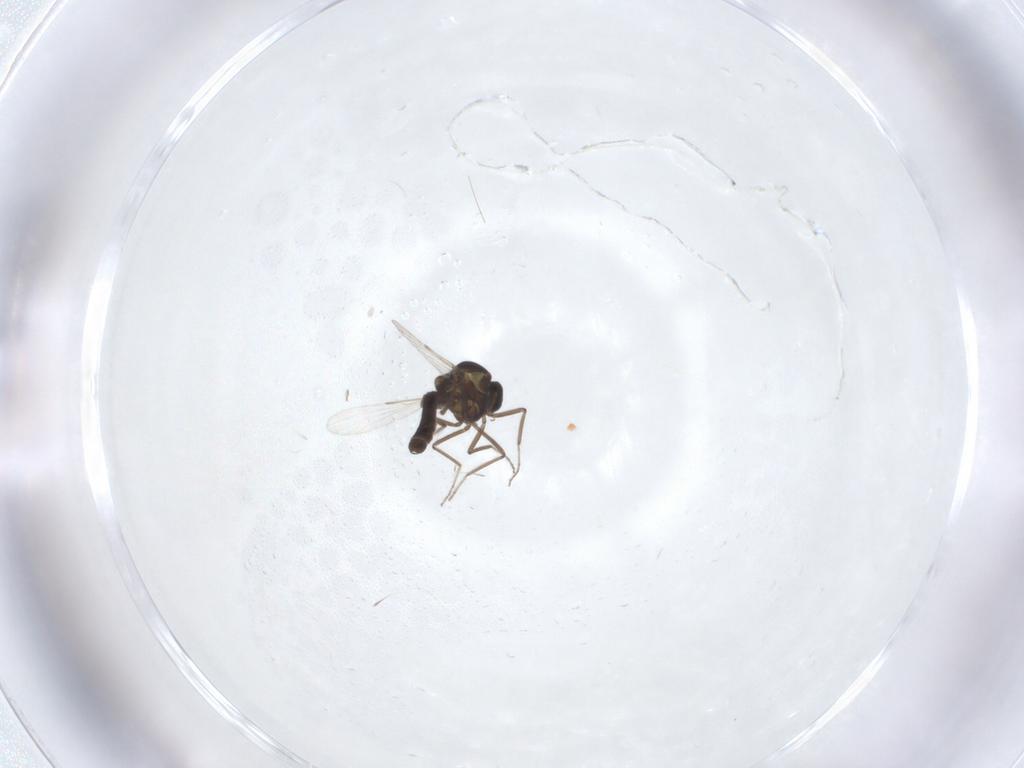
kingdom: Animalia
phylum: Arthropoda
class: Insecta
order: Diptera
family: Ceratopogonidae
